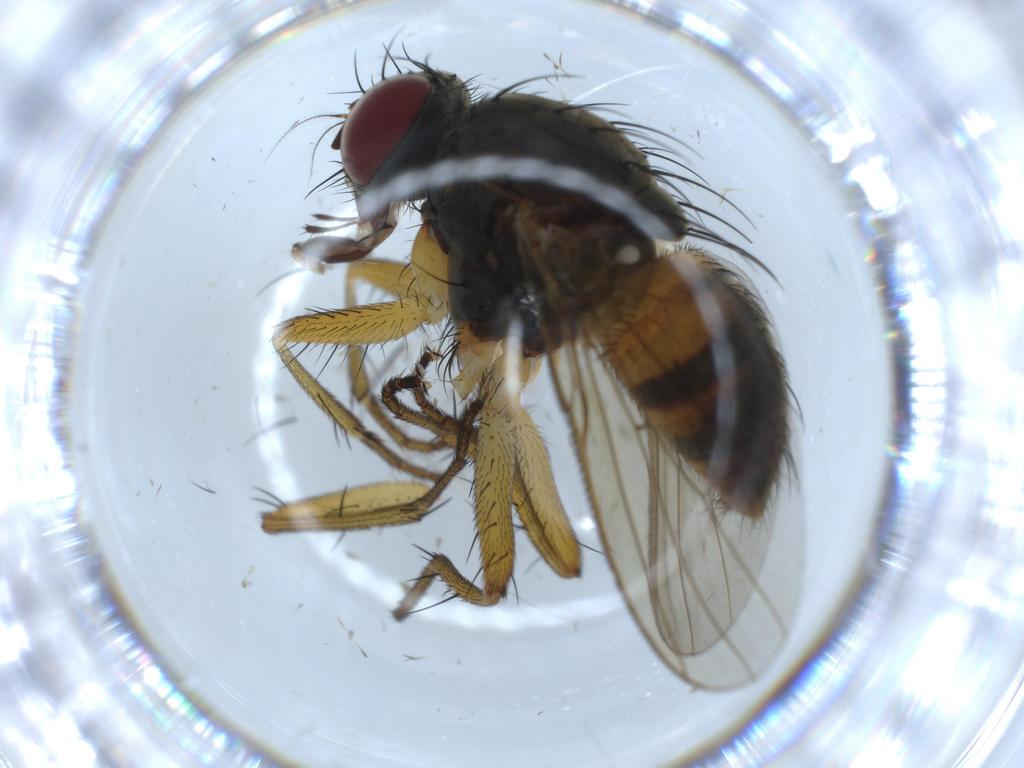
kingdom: Animalia
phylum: Arthropoda
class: Insecta
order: Diptera
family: Muscidae
